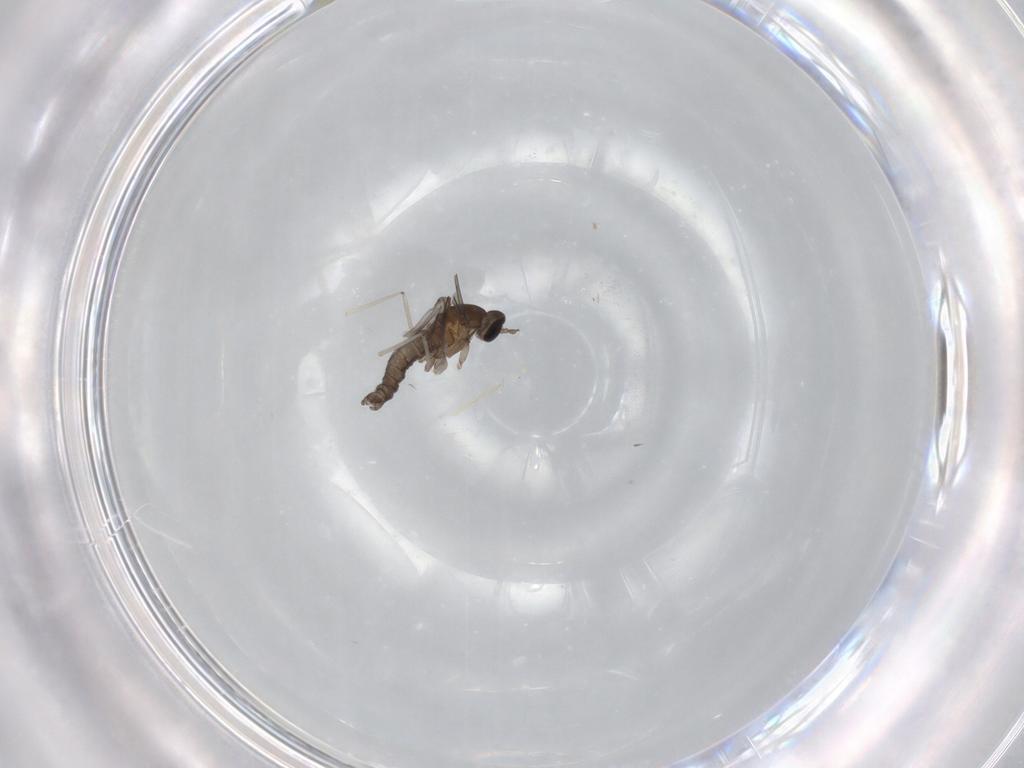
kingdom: Animalia
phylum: Arthropoda
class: Insecta
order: Diptera
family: Cecidomyiidae
